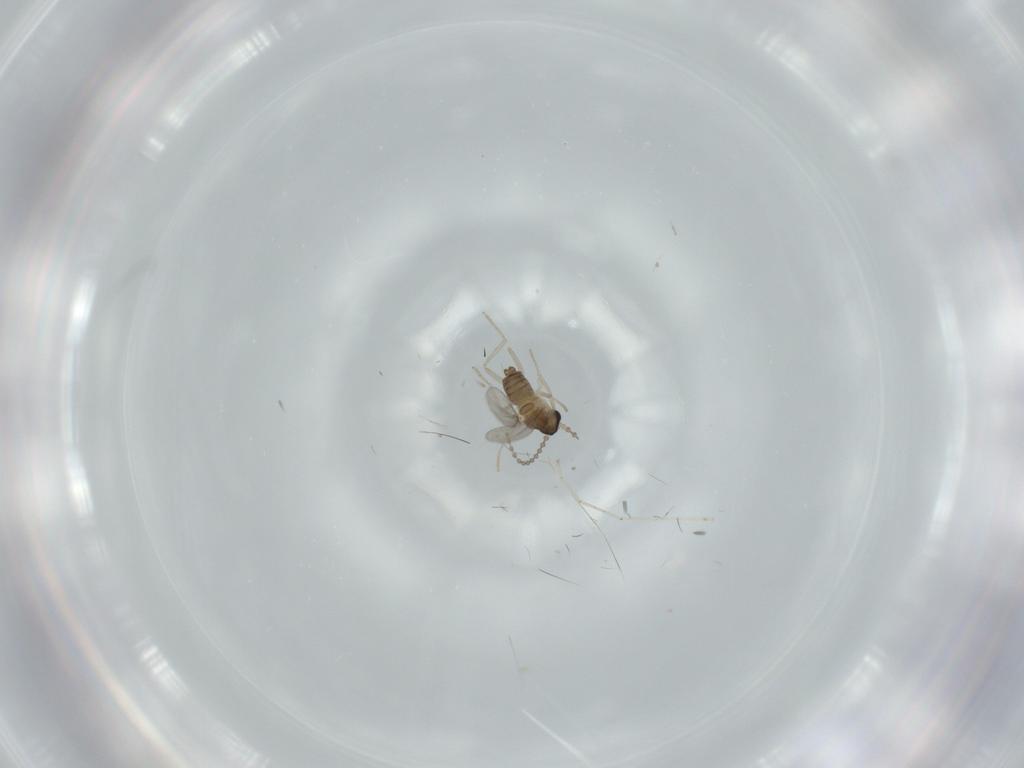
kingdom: Animalia
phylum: Arthropoda
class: Insecta
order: Diptera
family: Cecidomyiidae
